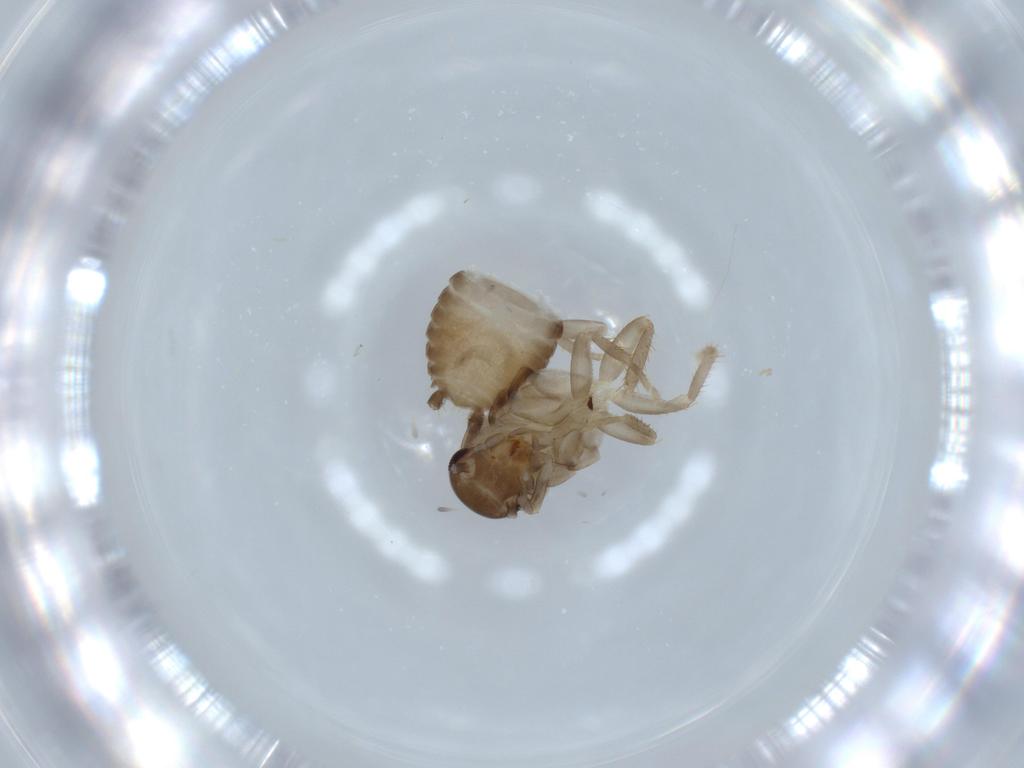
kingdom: Animalia
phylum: Arthropoda
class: Insecta
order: Blattodea
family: Ectobiidae
